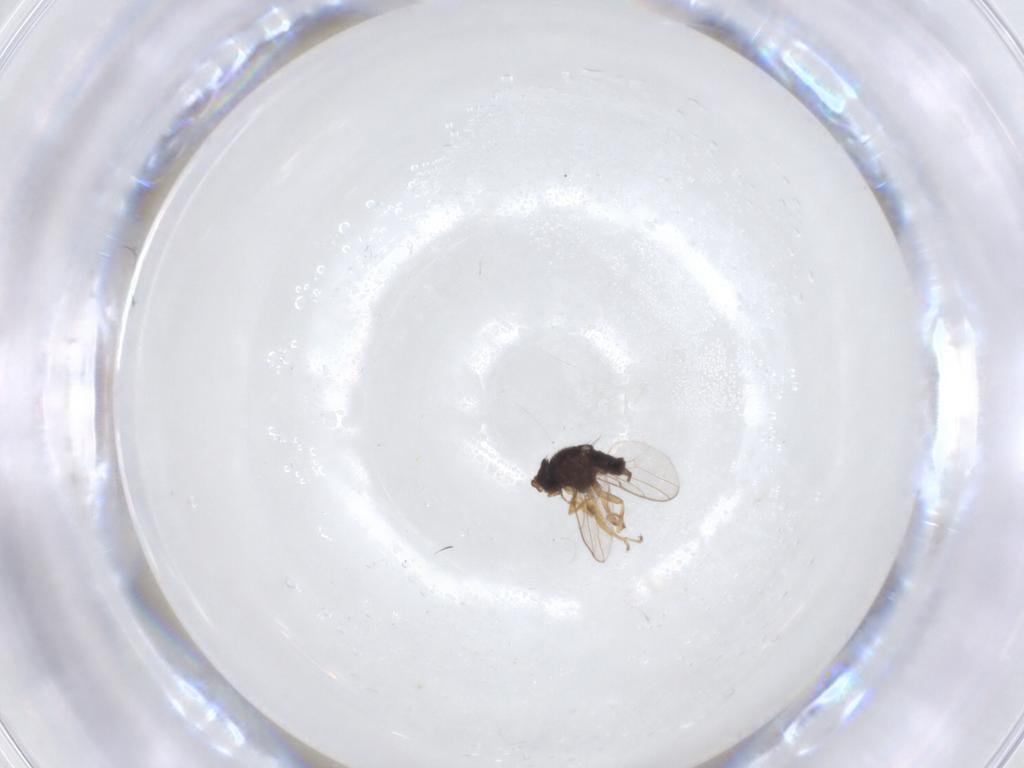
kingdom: Animalia
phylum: Arthropoda
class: Insecta
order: Diptera
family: Chloropidae
